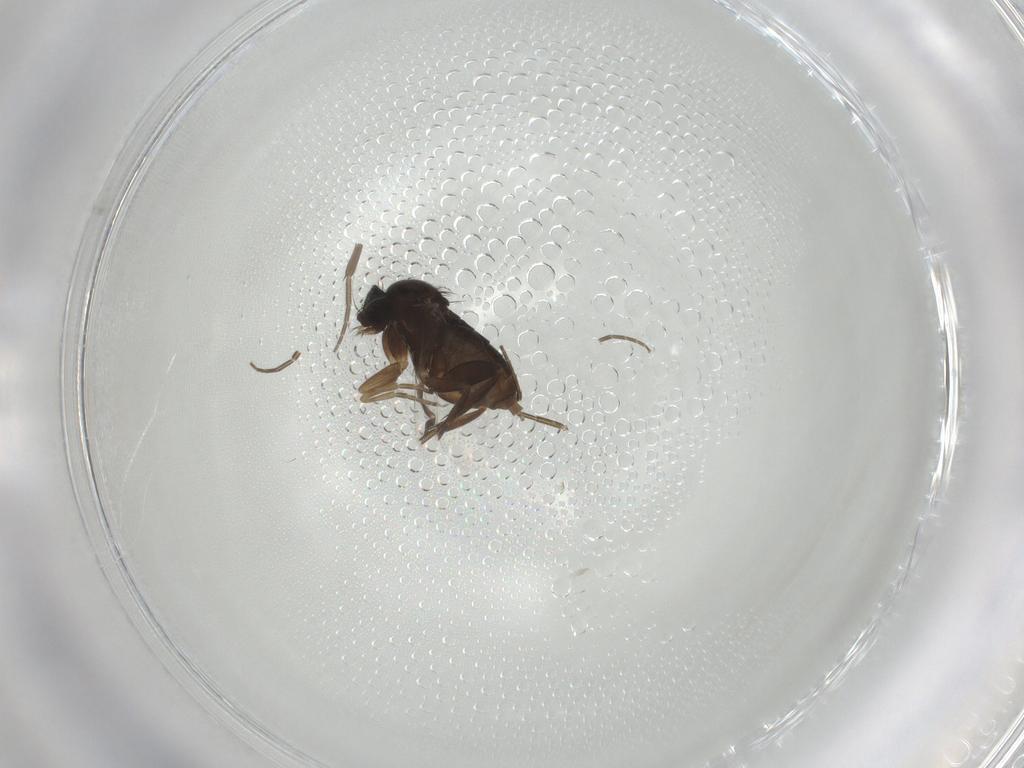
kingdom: Animalia
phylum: Arthropoda
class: Insecta
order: Diptera
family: Phoridae
